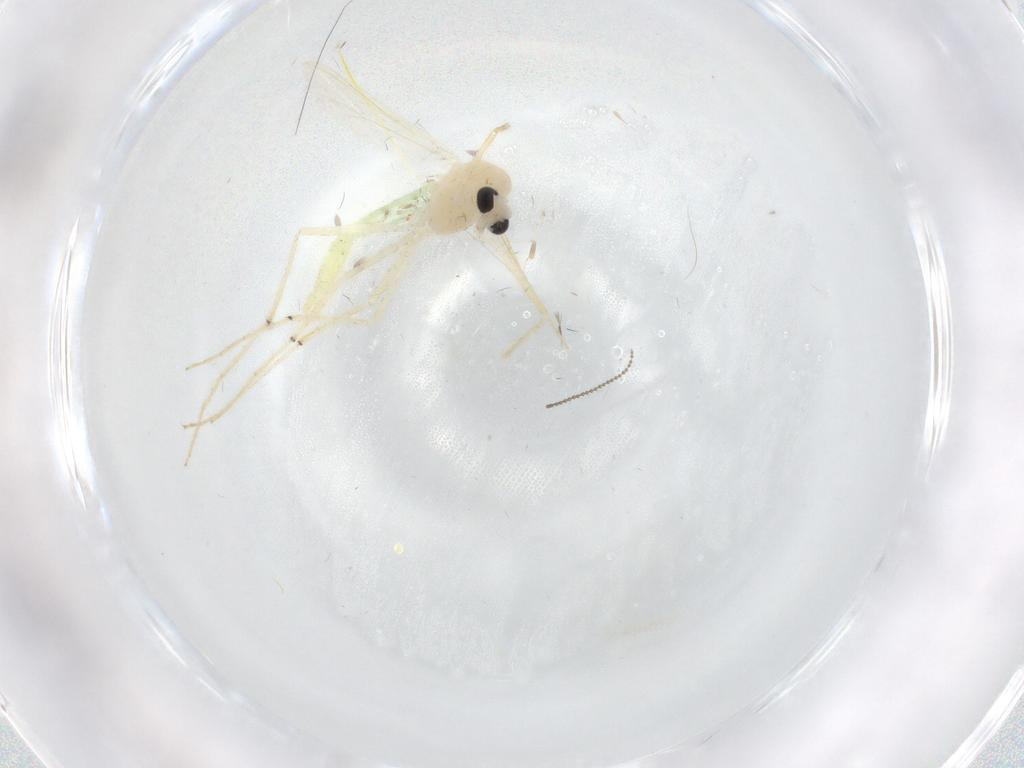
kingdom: Animalia
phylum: Arthropoda
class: Insecta
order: Diptera
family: Chironomidae
